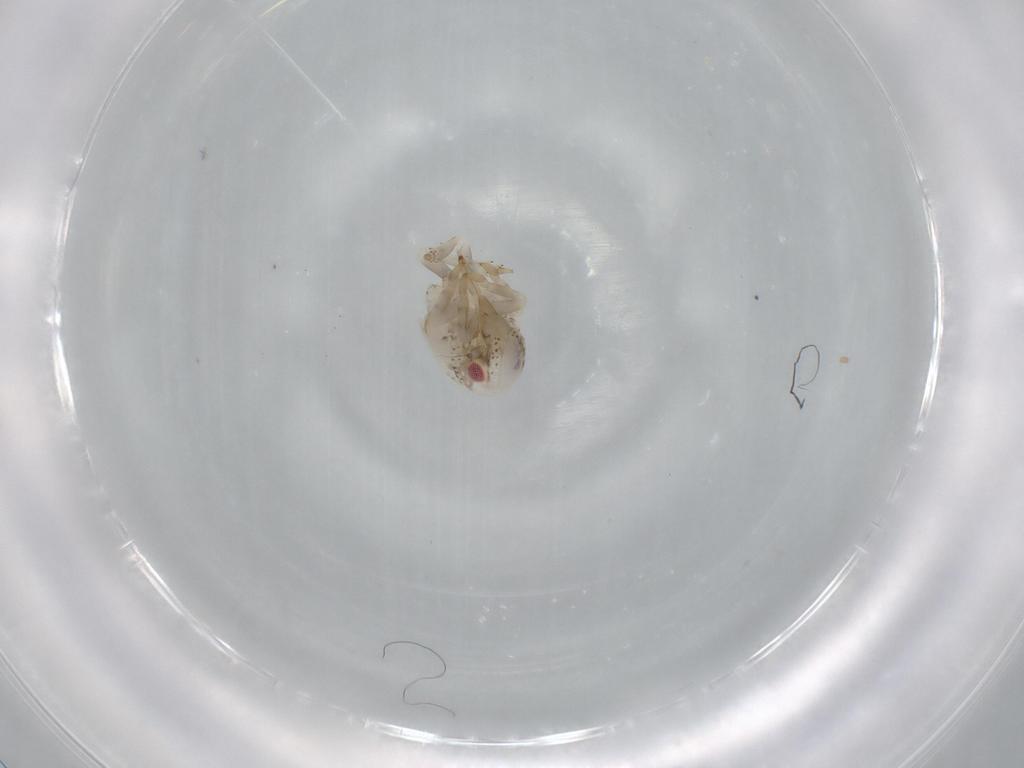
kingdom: Animalia
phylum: Arthropoda
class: Insecta
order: Hemiptera
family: Acanaloniidae
